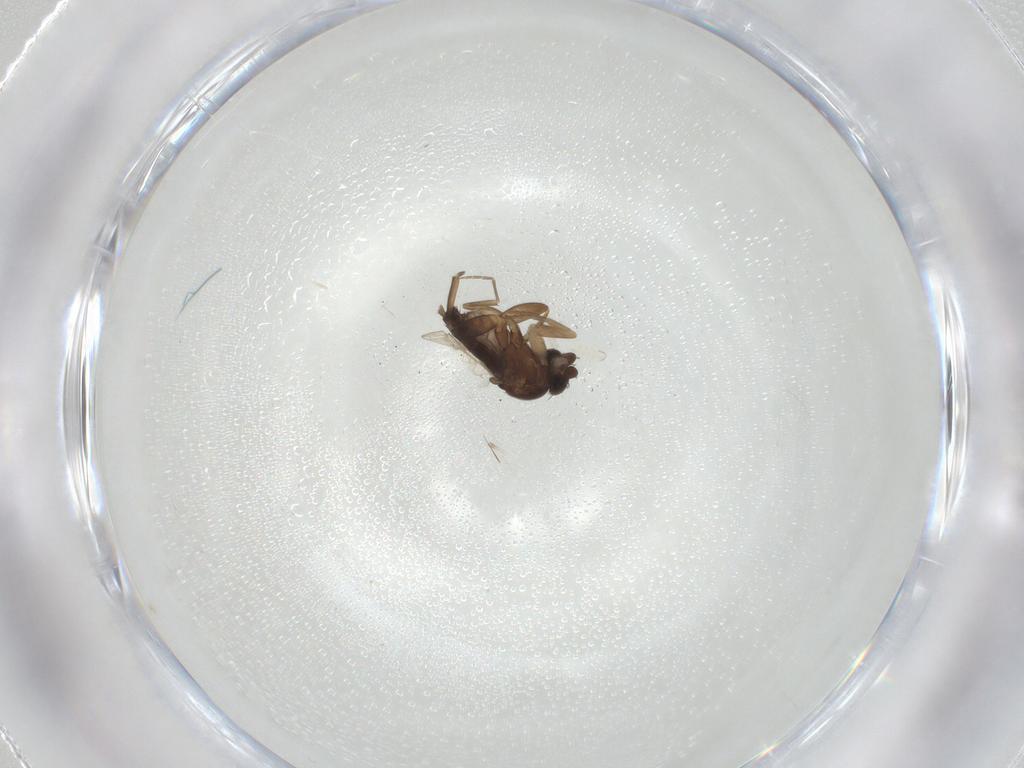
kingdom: Animalia
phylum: Arthropoda
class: Insecta
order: Diptera
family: Phoridae
